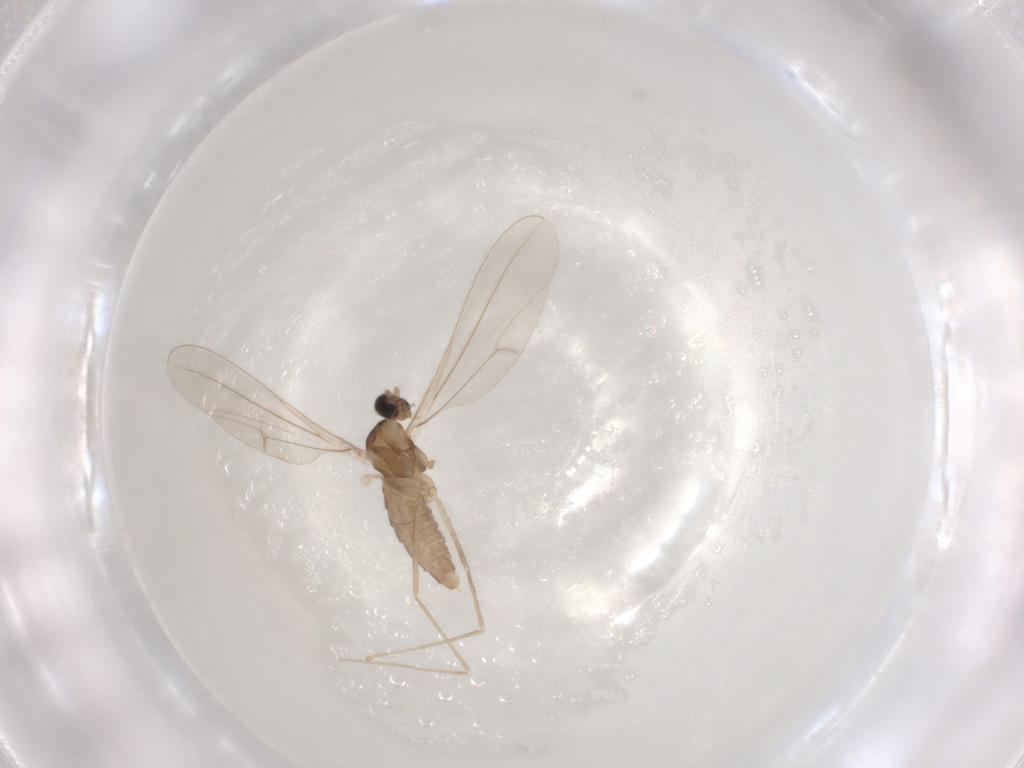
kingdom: Animalia
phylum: Arthropoda
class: Insecta
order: Diptera
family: Cecidomyiidae
